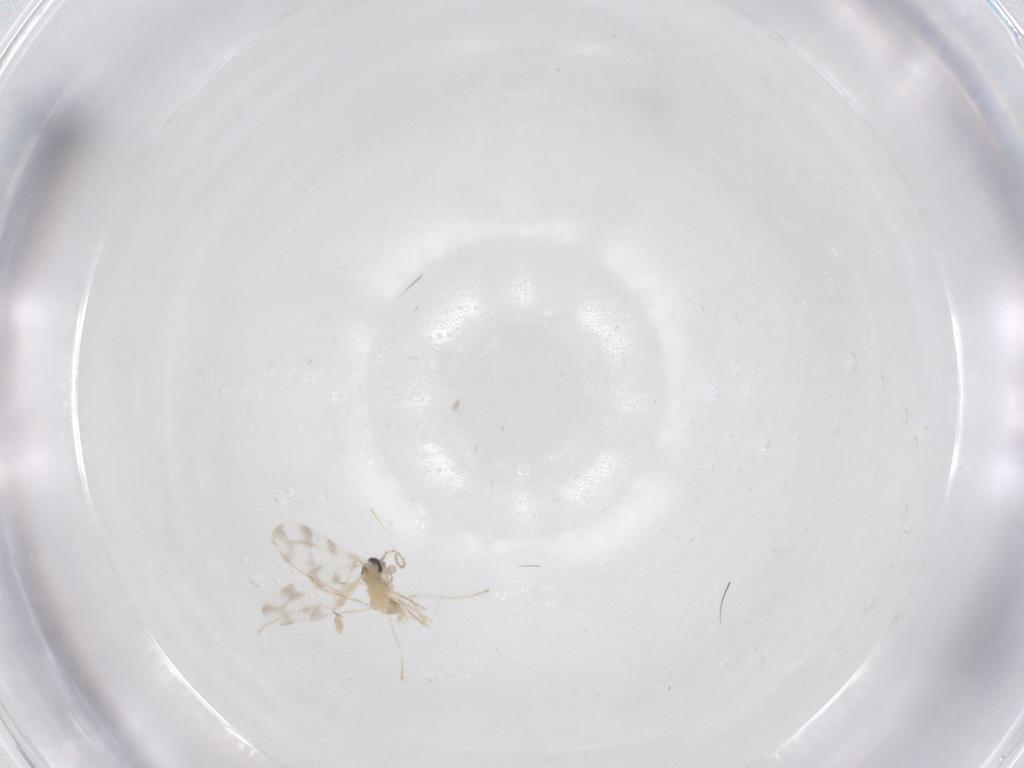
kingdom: Animalia
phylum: Arthropoda
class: Insecta
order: Diptera
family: Cecidomyiidae
